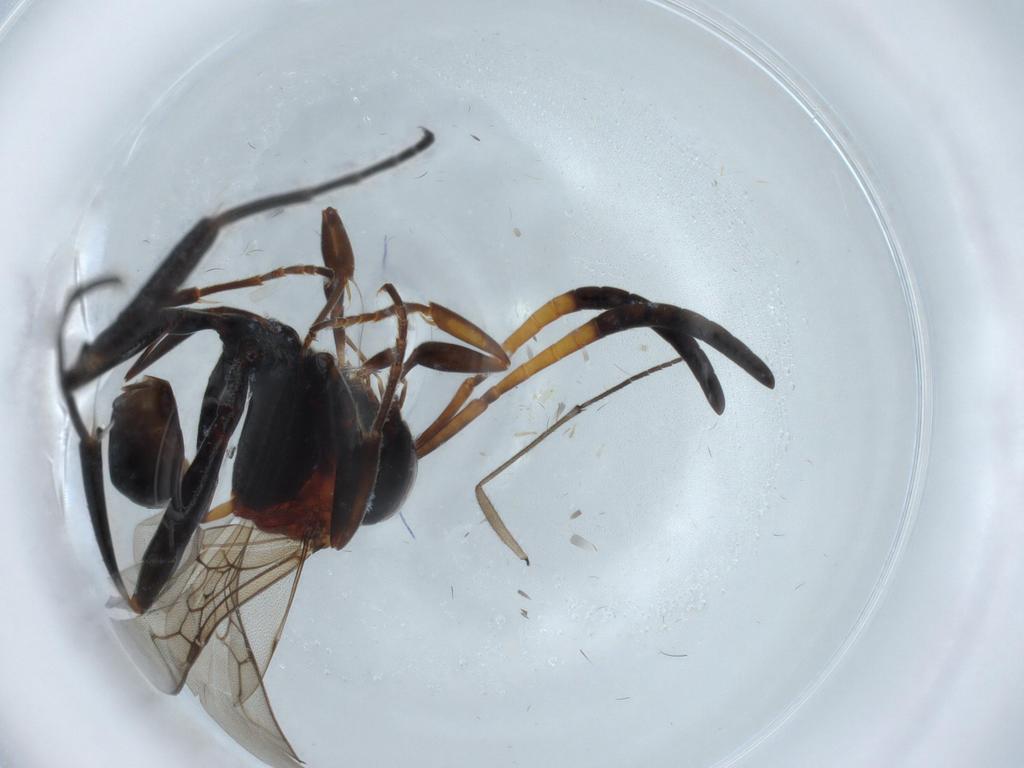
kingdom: Animalia
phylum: Arthropoda
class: Insecta
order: Hymenoptera
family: Evaniidae
